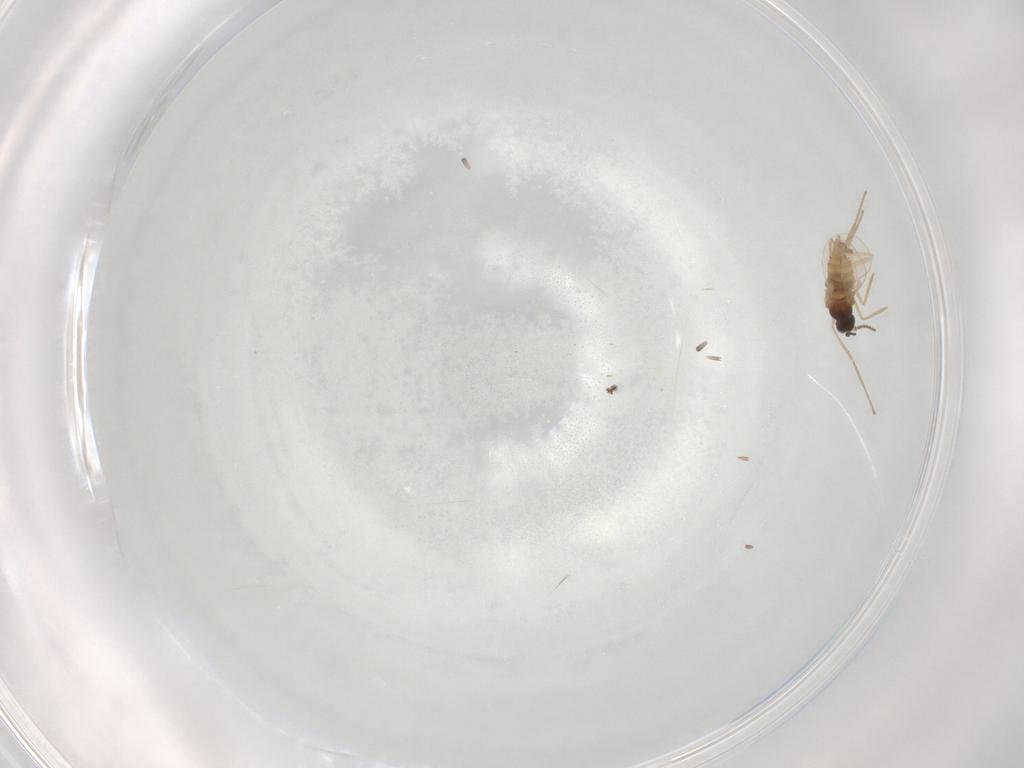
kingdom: Animalia
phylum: Arthropoda
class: Insecta
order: Diptera
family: Cecidomyiidae
